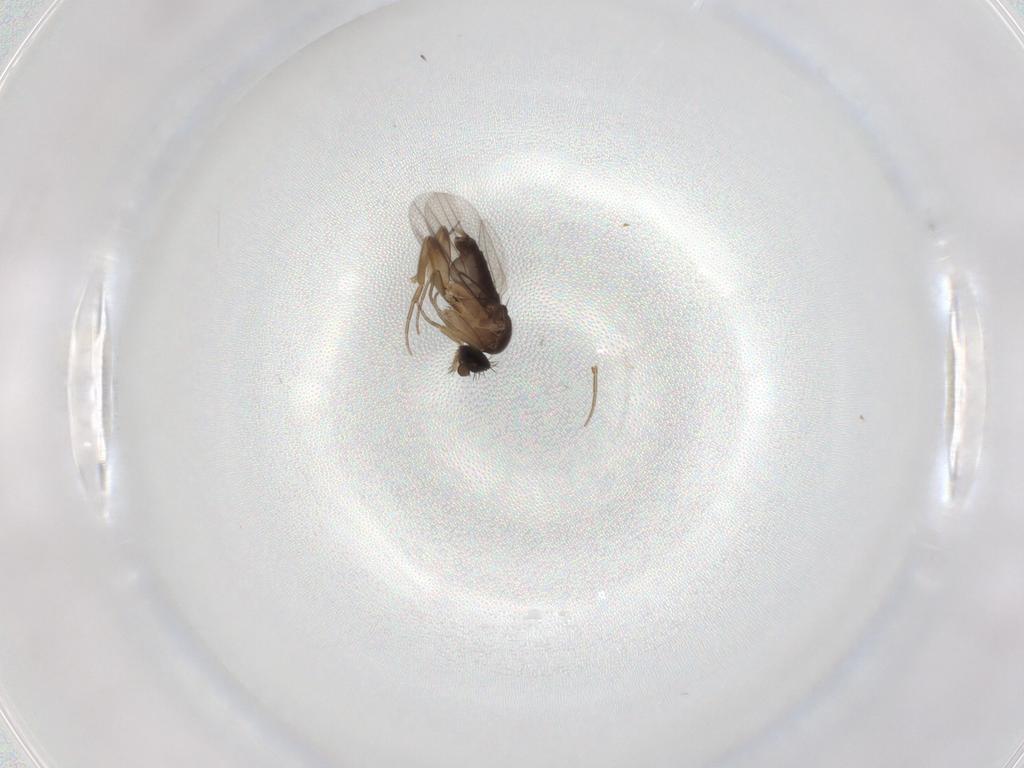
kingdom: Animalia
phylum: Arthropoda
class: Insecta
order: Diptera
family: Phoridae
